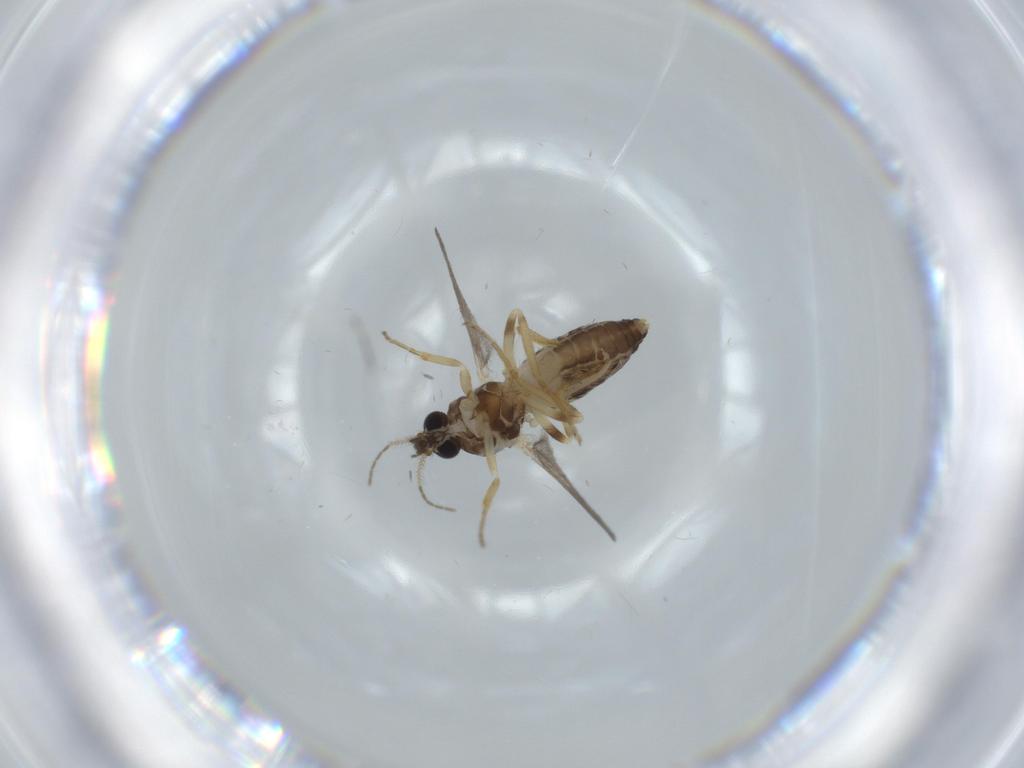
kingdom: Animalia
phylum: Arthropoda
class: Insecta
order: Diptera
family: Ceratopogonidae
